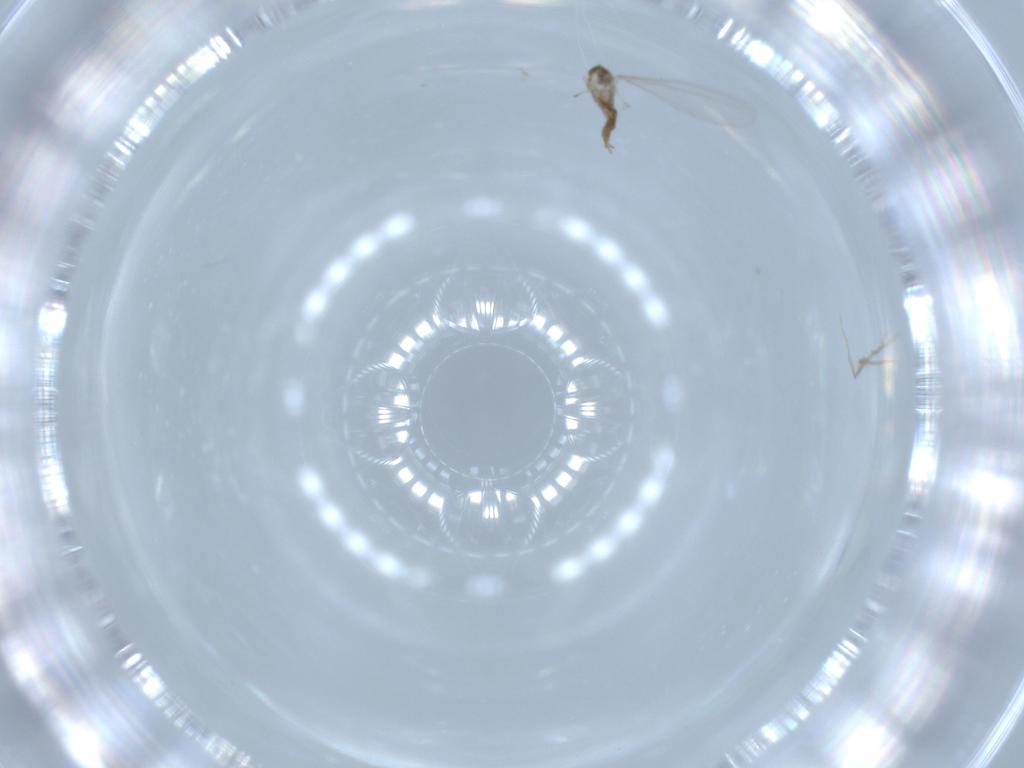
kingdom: Animalia
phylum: Arthropoda
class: Insecta
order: Diptera
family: Cecidomyiidae
